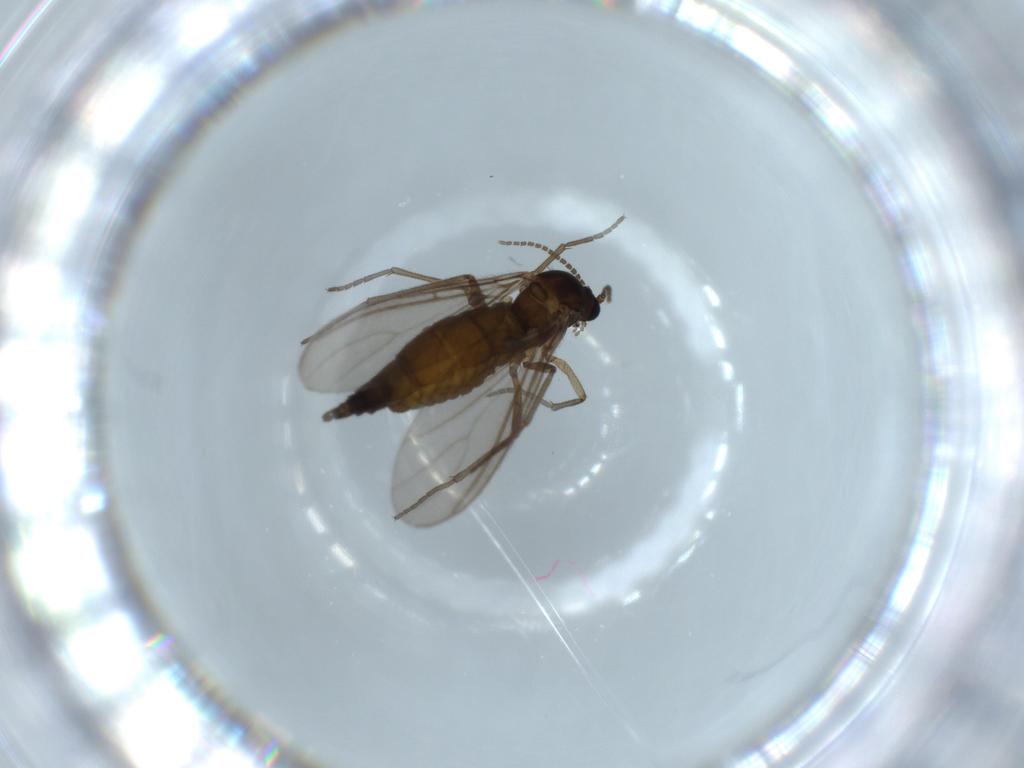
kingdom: Animalia
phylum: Arthropoda
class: Insecta
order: Diptera
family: Sciaridae
